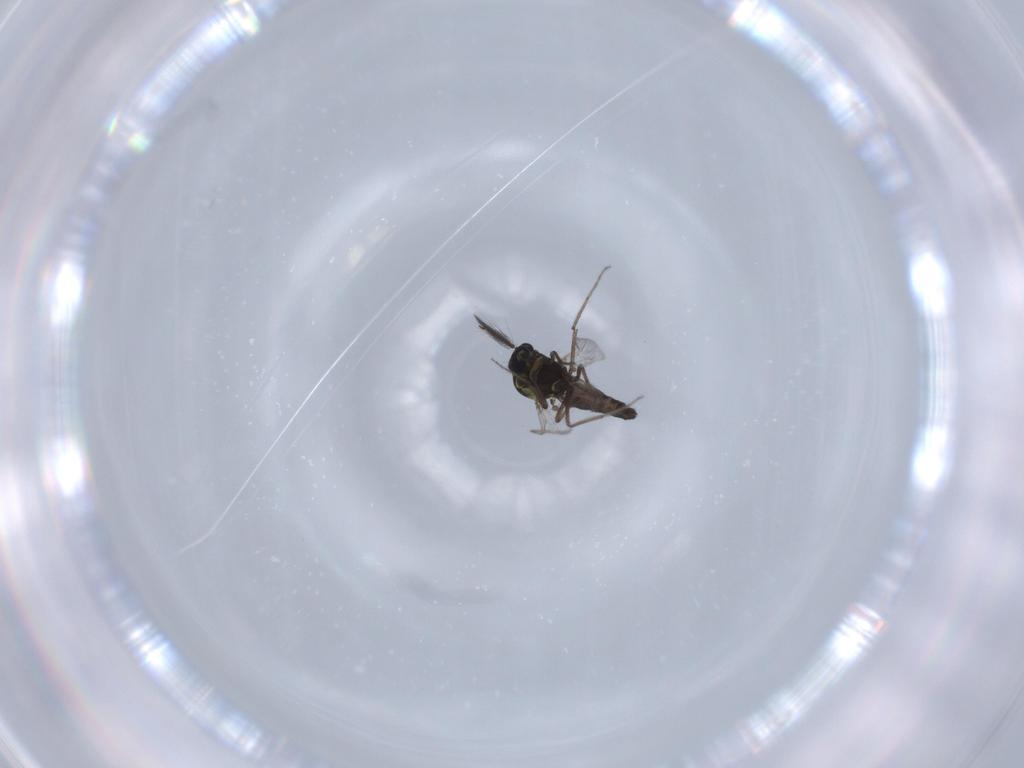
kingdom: Animalia
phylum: Arthropoda
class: Insecta
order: Diptera
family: Ceratopogonidae
